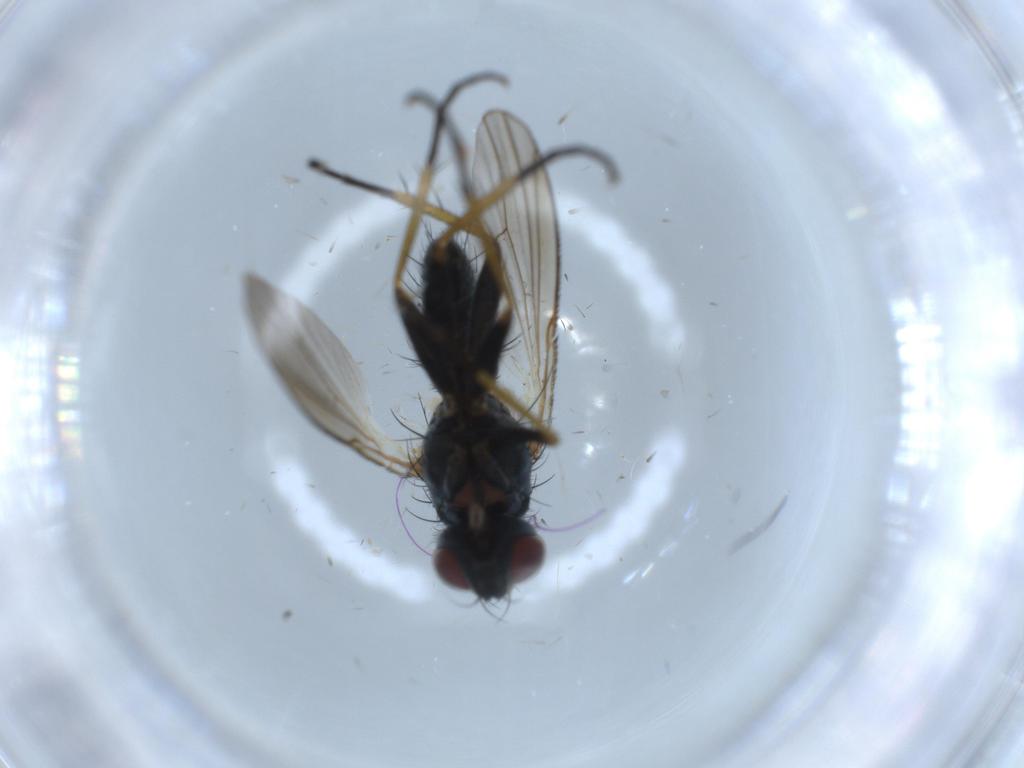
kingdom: Animalia
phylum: Arthropoda
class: Insecta
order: Diptera
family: Muscidae
